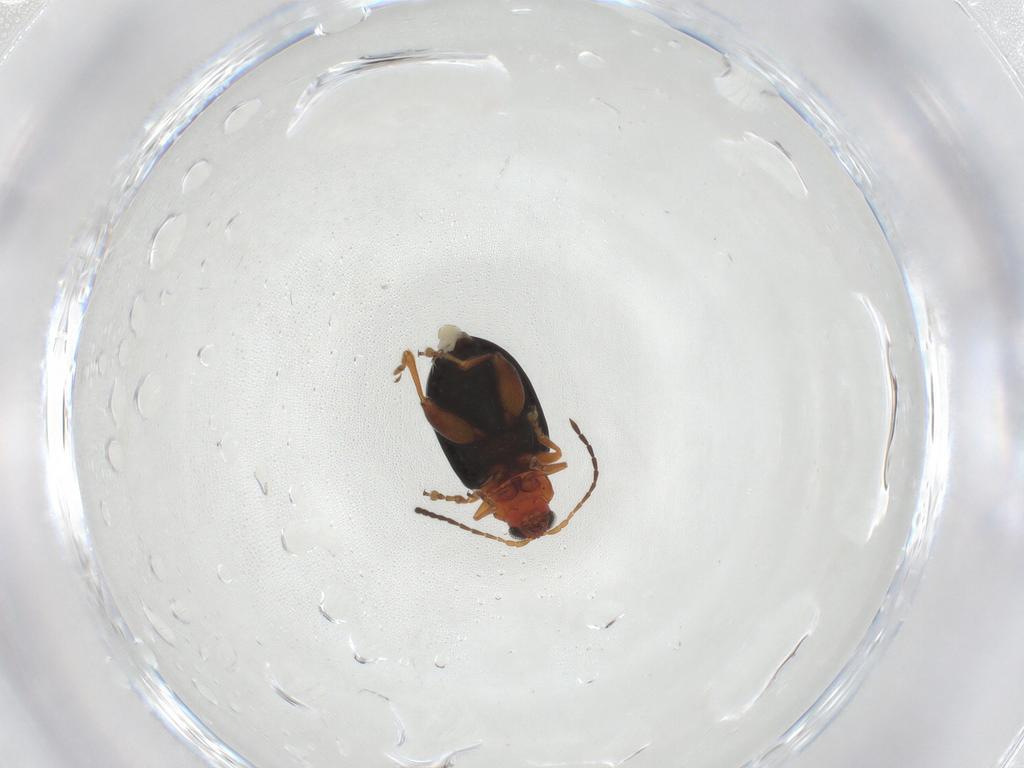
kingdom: Animalia
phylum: Arthropoda
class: Insecta
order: Coleoptera
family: Chrysomelidae
